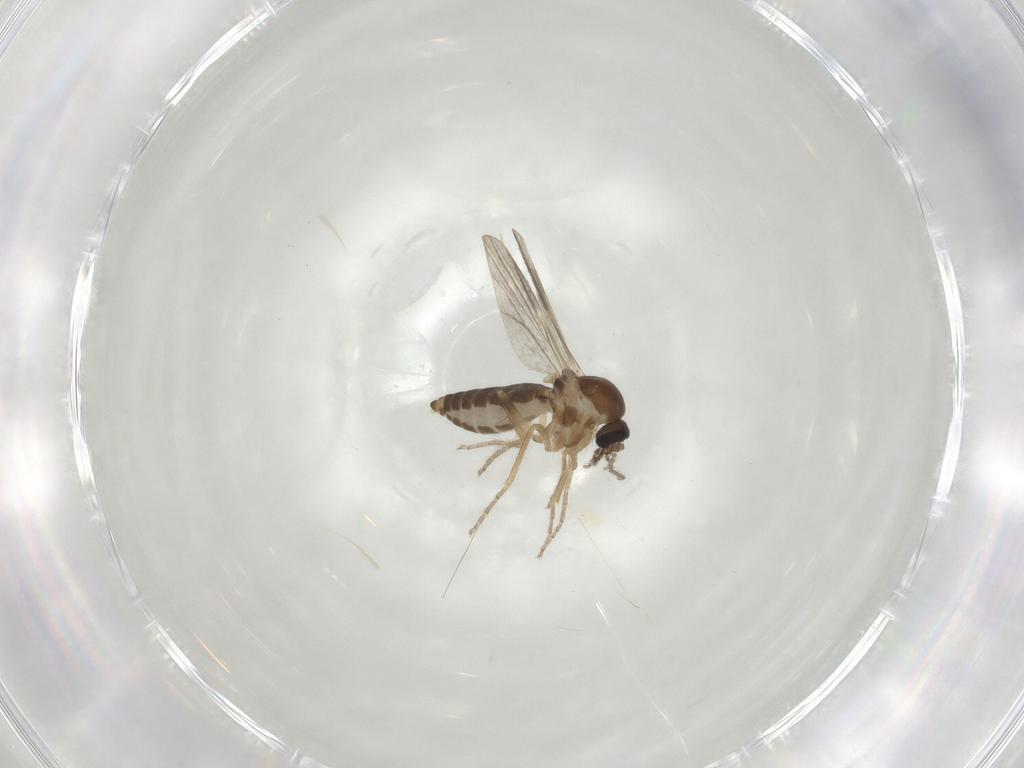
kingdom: Animalia
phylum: Arthropoda
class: Insecta
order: Diptera
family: Ceratopogonidae
